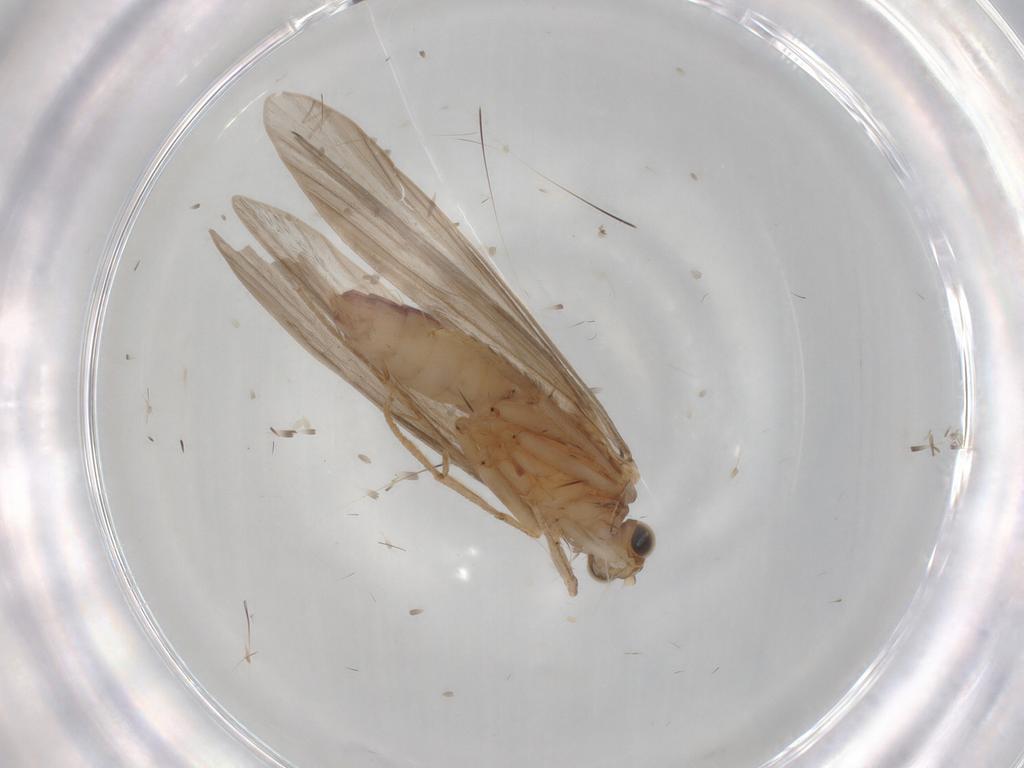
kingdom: Animalia
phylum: Arthropoda
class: Insecta
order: Trichoptera
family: Psychomyiidae
